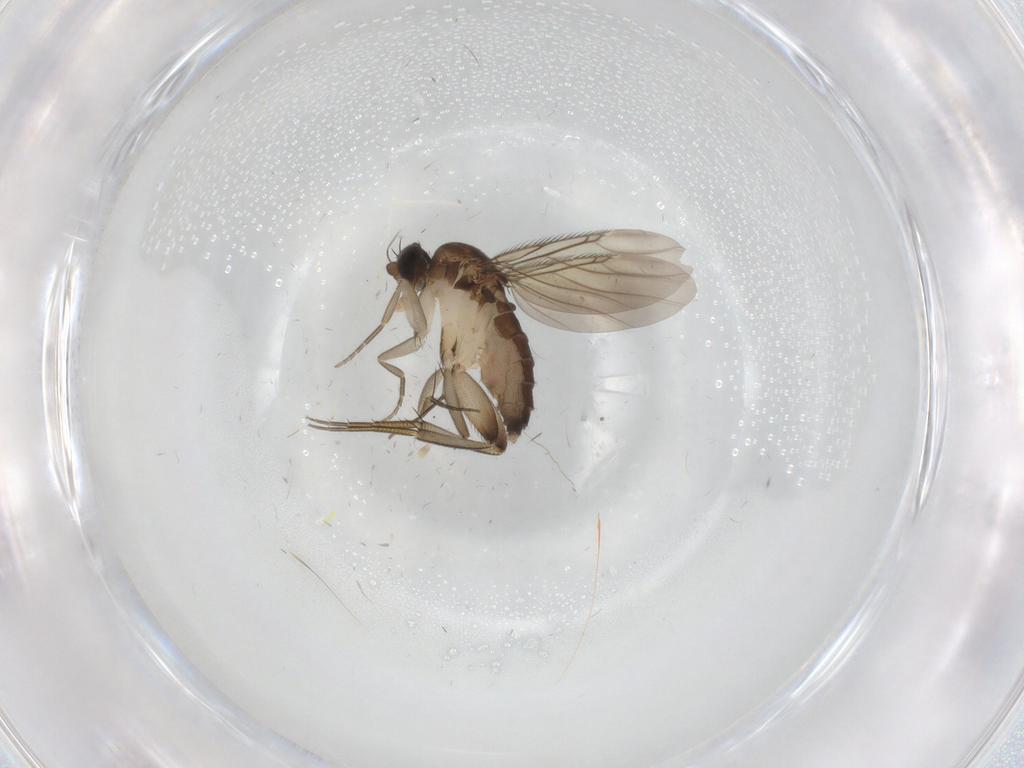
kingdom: Animalia
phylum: Arthropoda
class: Insecta
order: Diptera
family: Phoridae
